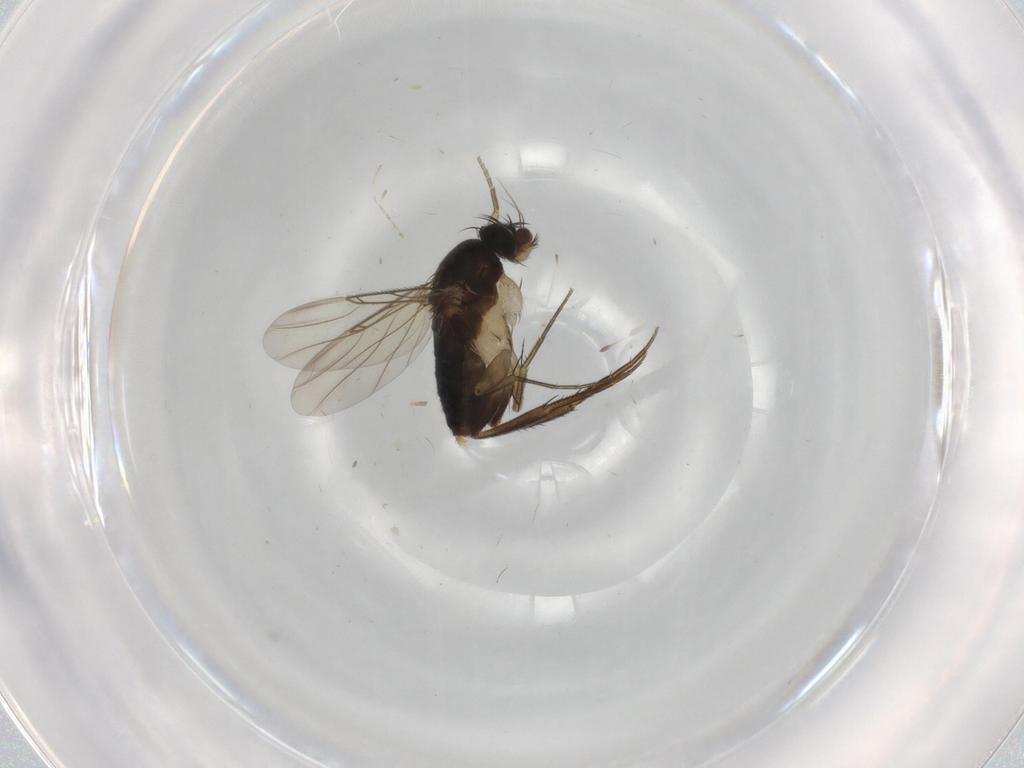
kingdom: Animalia
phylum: Arthropoda
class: Insecta
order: Diptera
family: Phoridae
